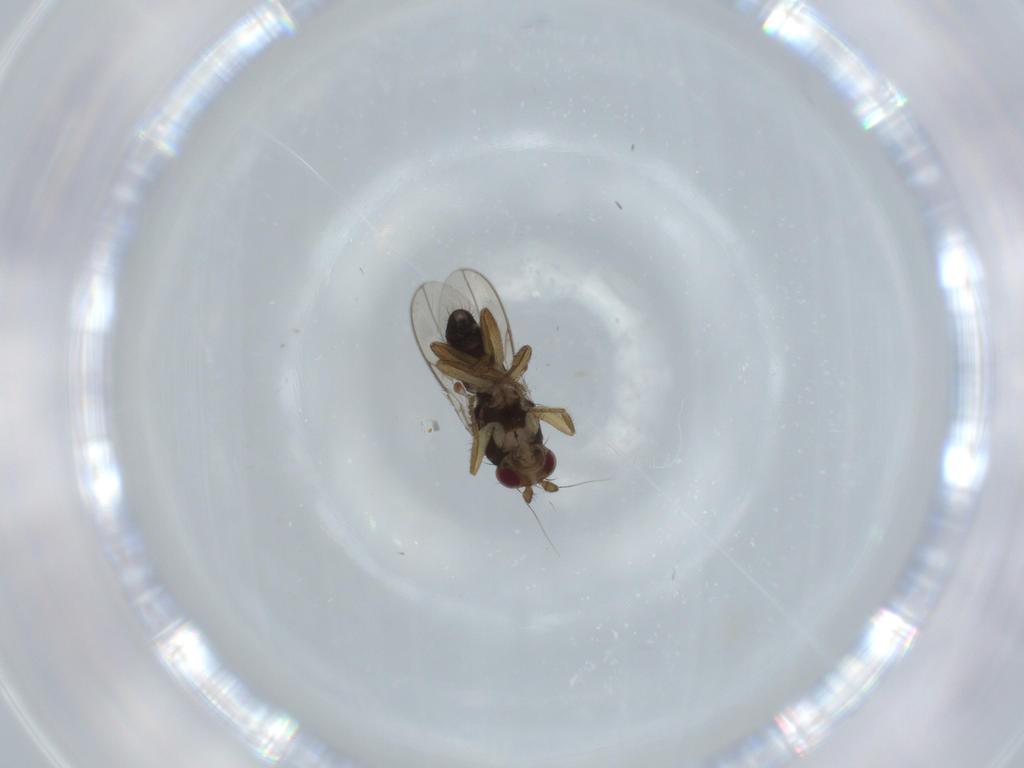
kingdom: Animalia
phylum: Arthropoda
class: Insecta
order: Diptera
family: Sphaeroceridae
